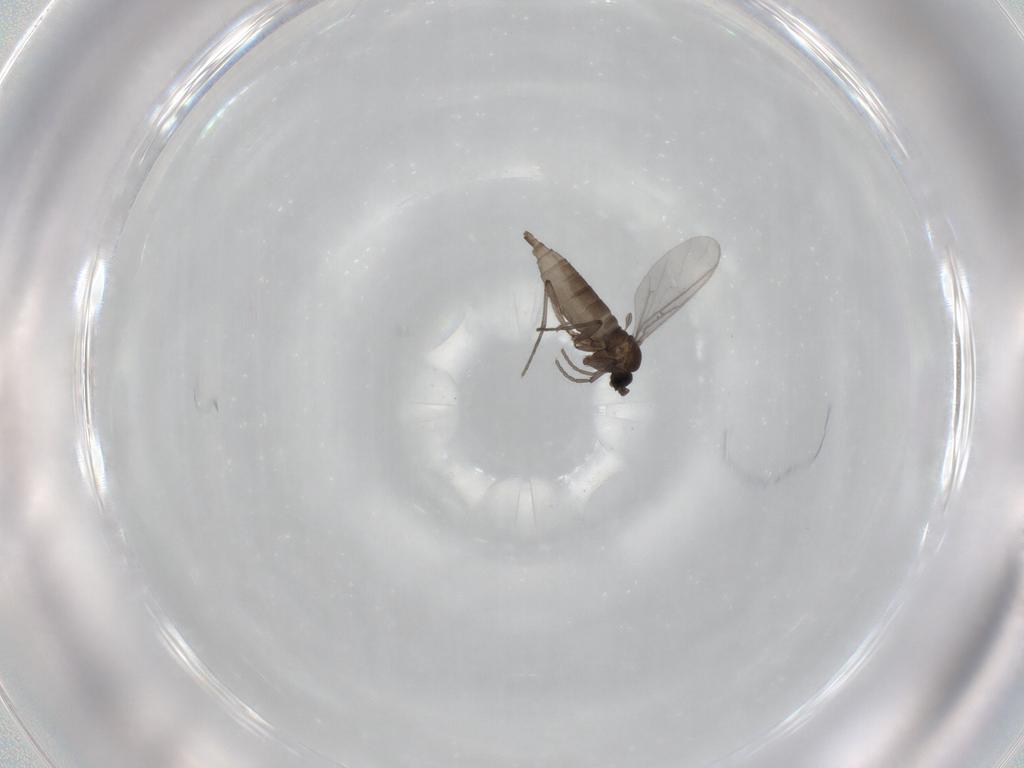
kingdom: Animalia
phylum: Arthropoda
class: Insecta
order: Diptera
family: Sciaridae
